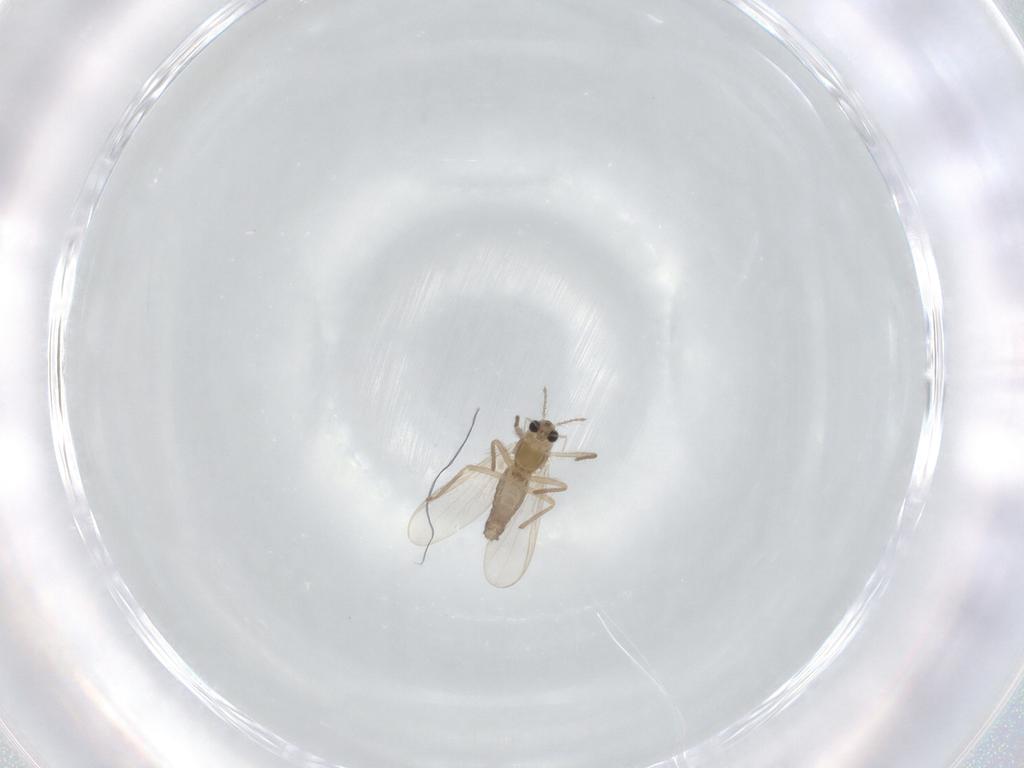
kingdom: Animalia
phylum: Arthropoda
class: Insecta
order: Diptera
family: Chironomidae
